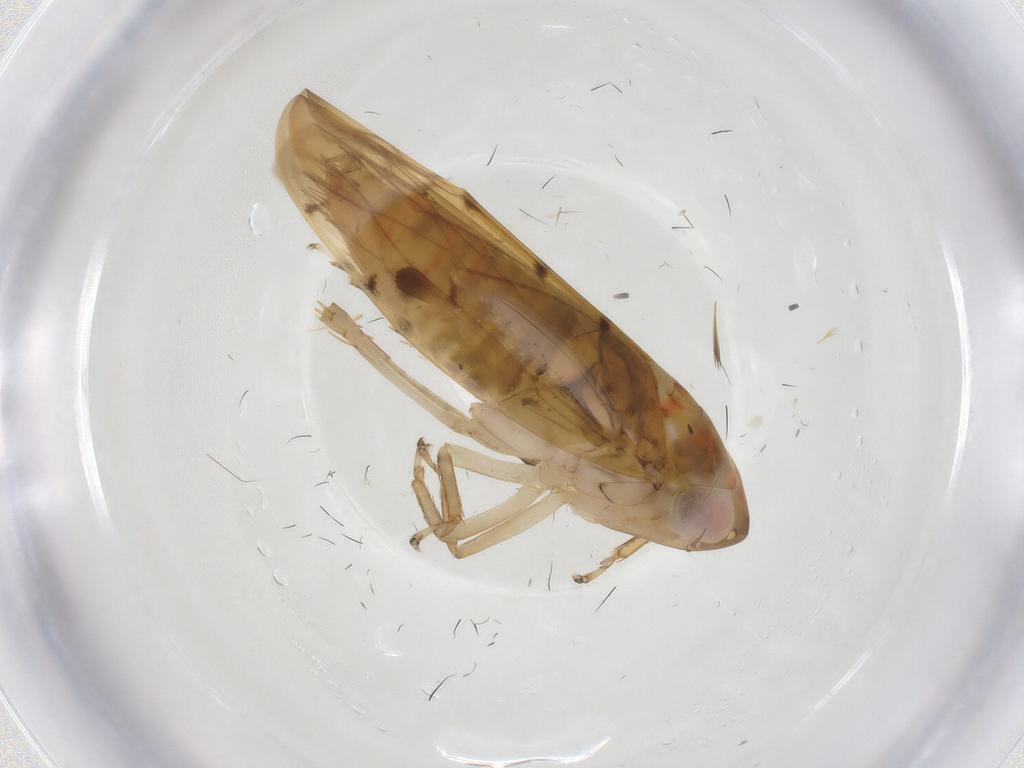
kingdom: Animalia
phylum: Arthropoda
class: Insecta
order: Hemiptera
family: Cicadellidae
